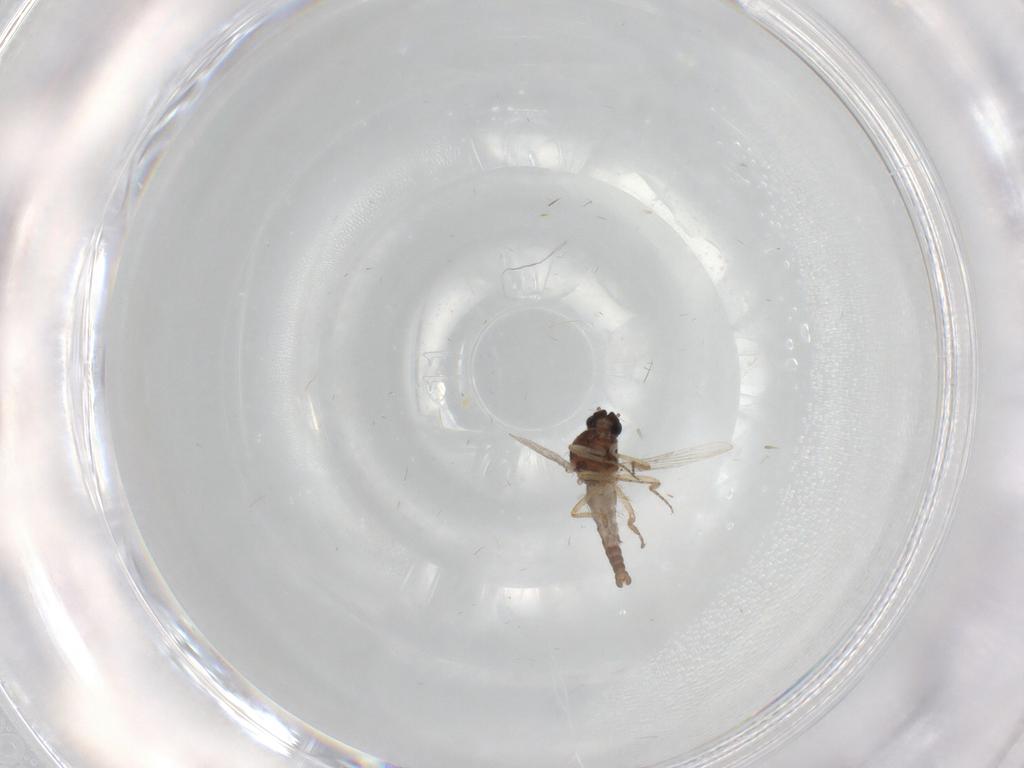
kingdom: Animalia
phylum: Arthropoda
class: Insecta
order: Diptera
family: Ceratopogonidae
